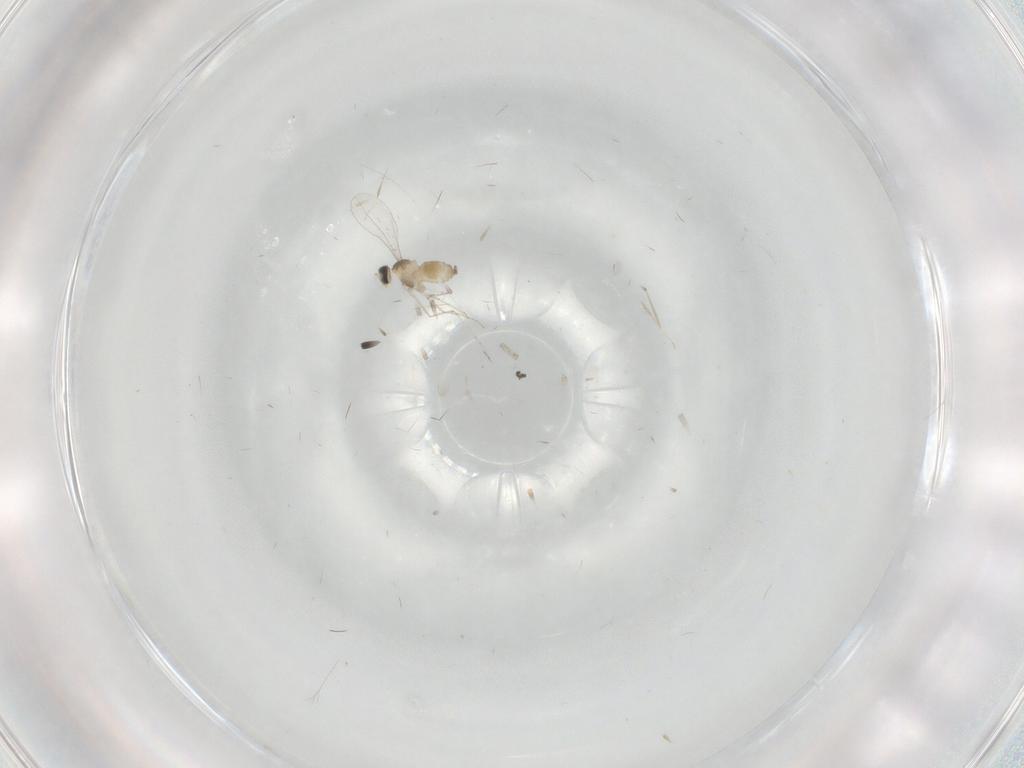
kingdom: Animalia
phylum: Arthropoda
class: Insecta
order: Diptera
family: Cecidomyiidae
